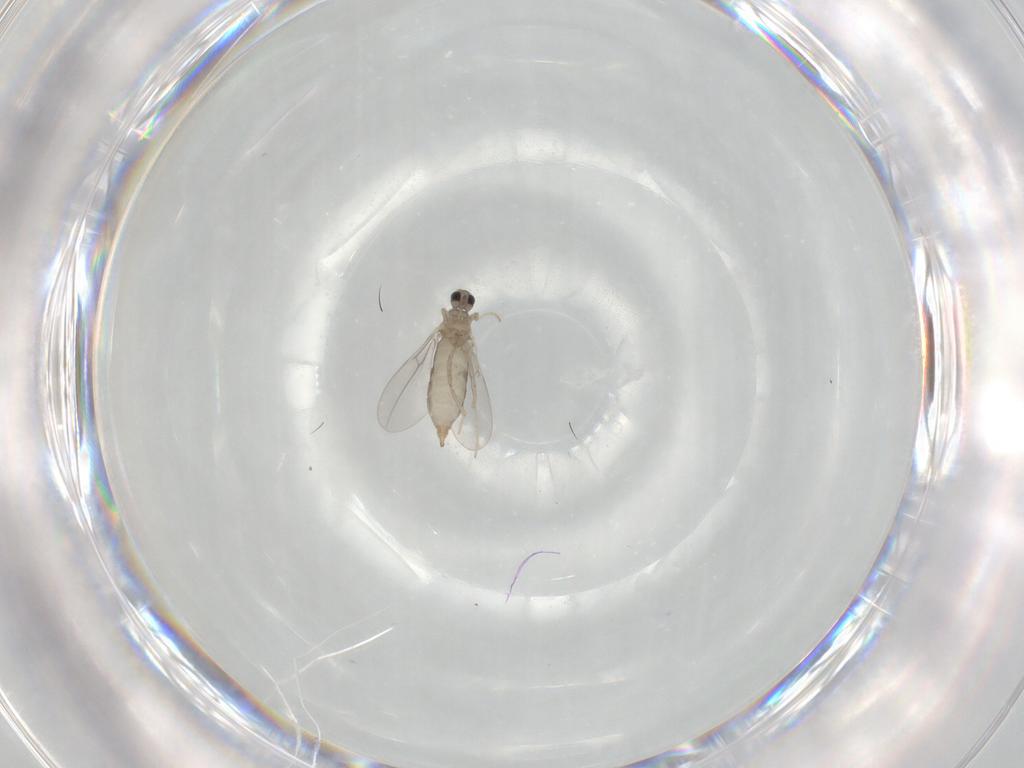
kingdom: Animalia
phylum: Arthropoda
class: Insecta
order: Diptera
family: Cecidomyiidae
